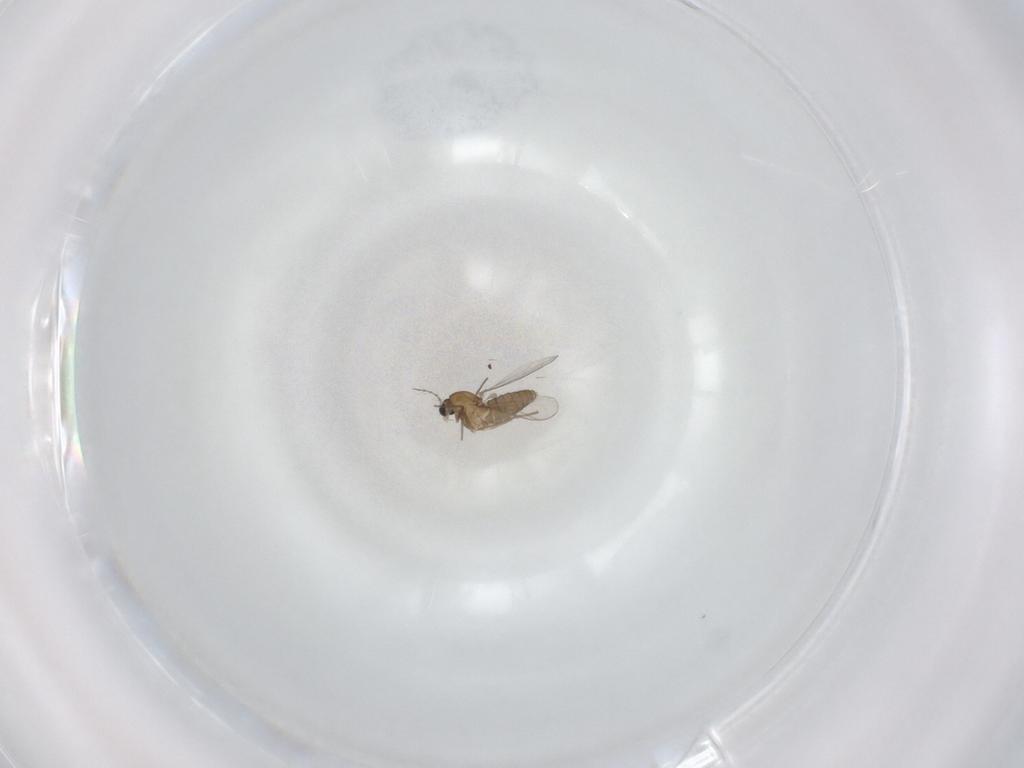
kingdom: Animalia
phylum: Arthropoda
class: Insecta
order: Diptera
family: Chironomidae
